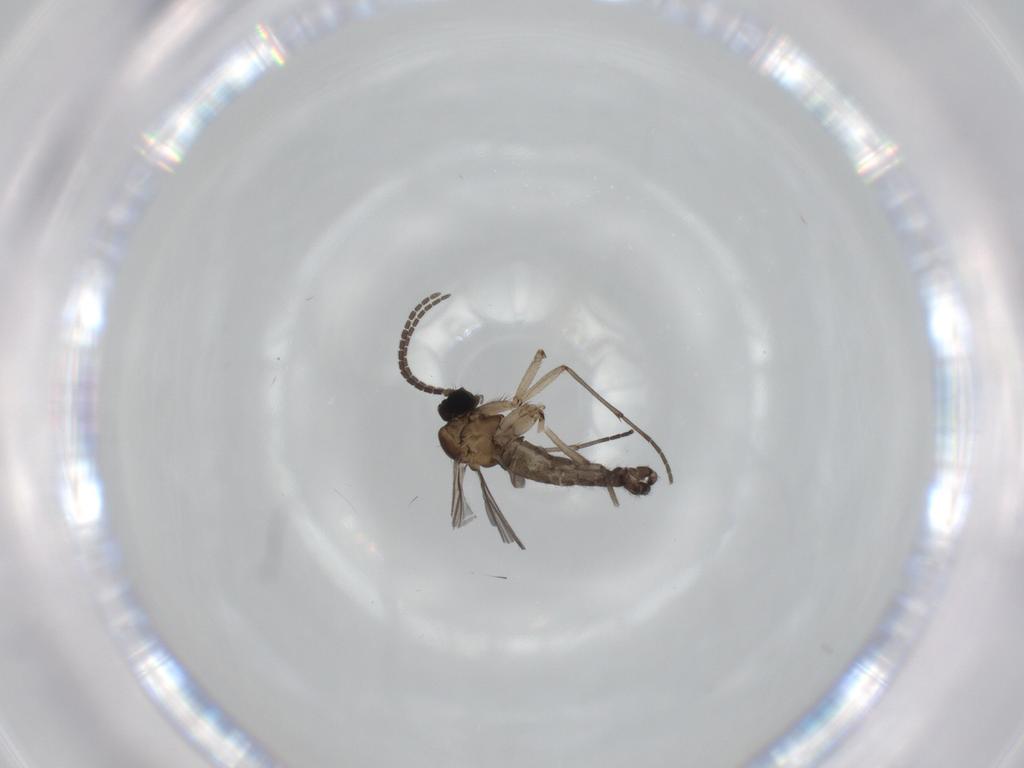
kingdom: Animalia
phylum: Arthropoda
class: Insecta
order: Diptera
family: Sciaridae
